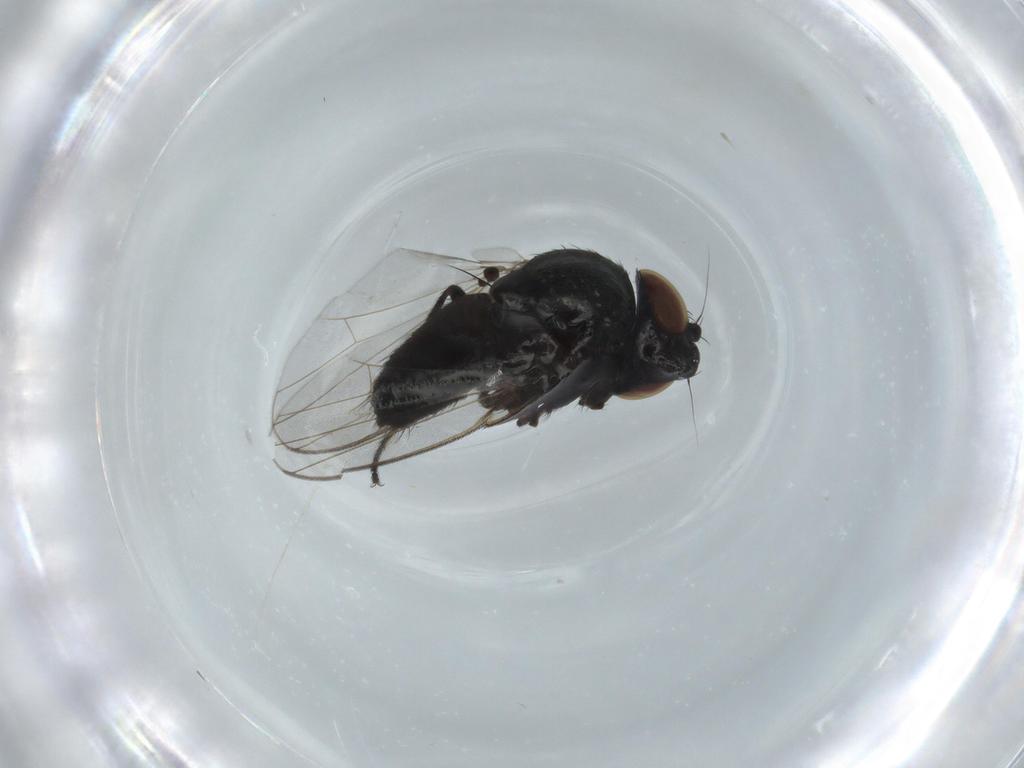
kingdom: Animalia
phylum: Arthropoda
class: Insecta
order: Diptera
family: Milichiidae
